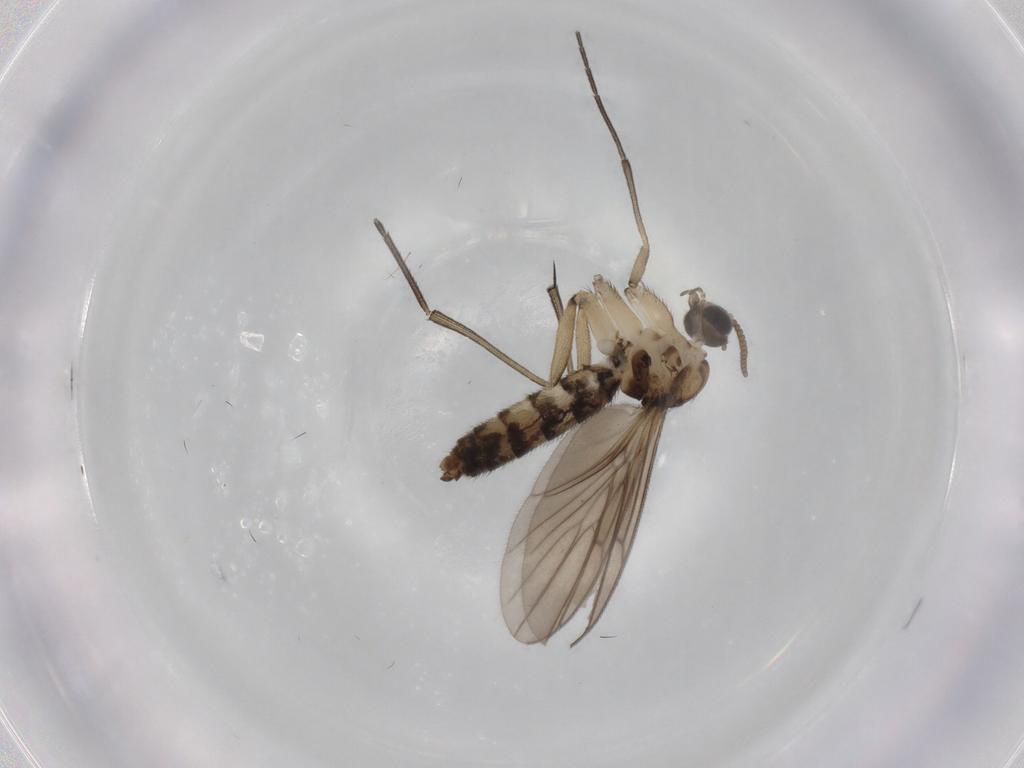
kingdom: Animalia
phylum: Arthropoda
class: Insecta
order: Diptera
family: Keroplatidae
